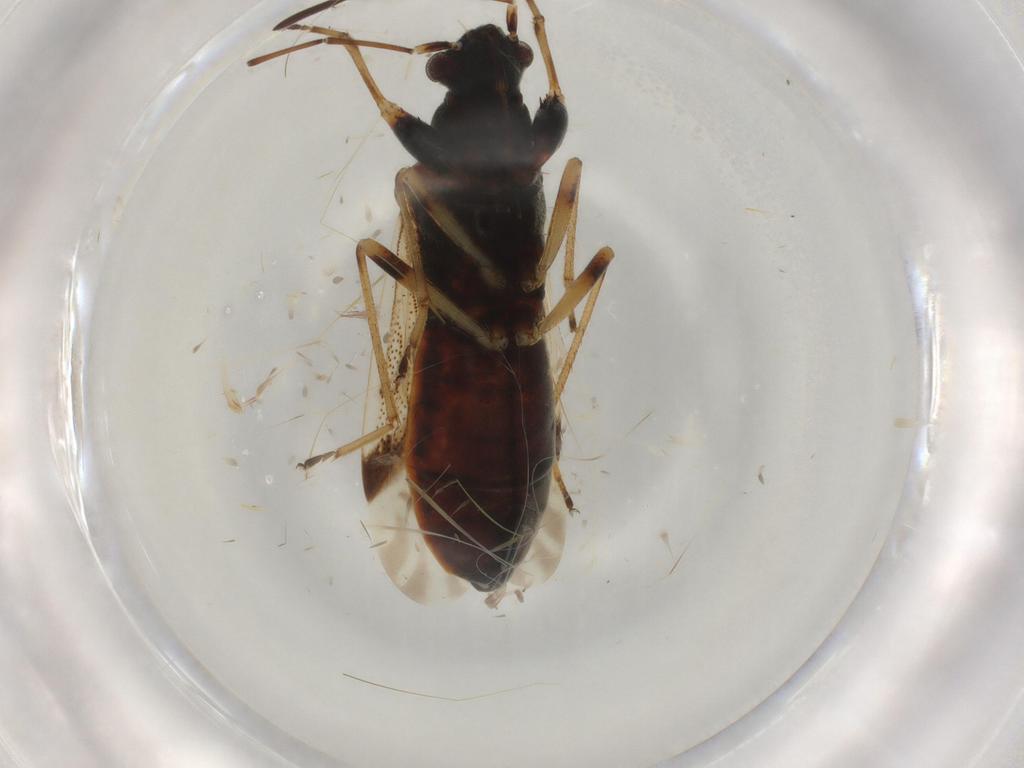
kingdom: Animalia
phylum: Arthropoda
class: Insecta
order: Hemiptera
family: Rhyparochromidae
